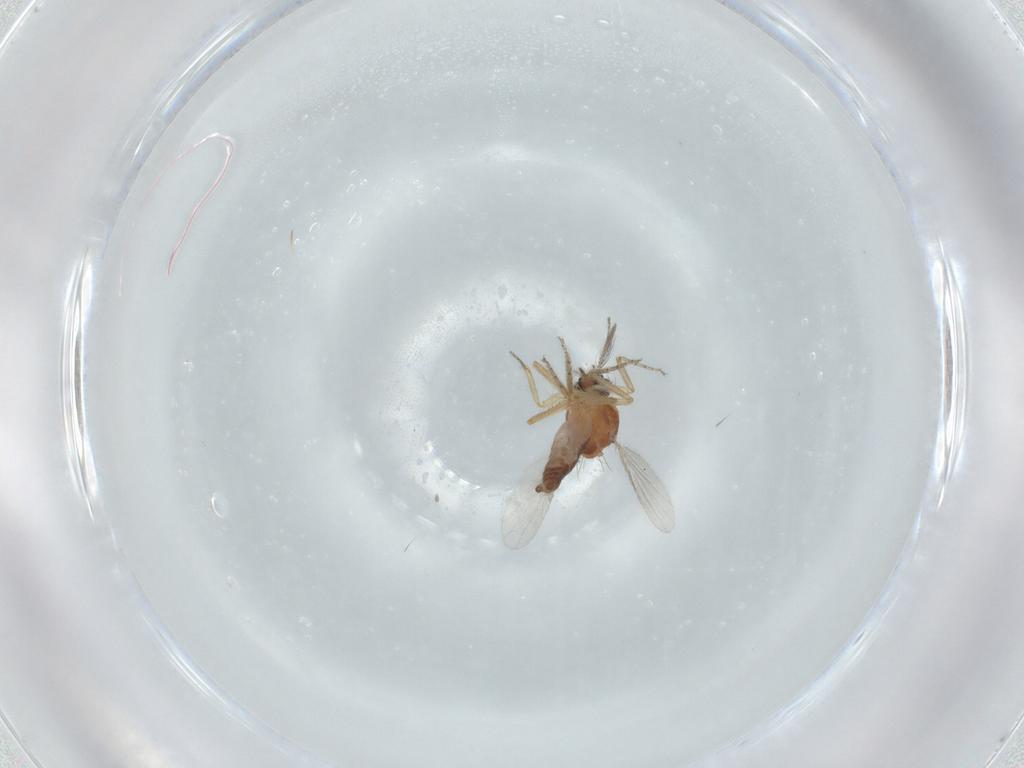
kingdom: Animalia
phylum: Arthropoda
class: Insecta
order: Diptera
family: Ceratopogonidae
